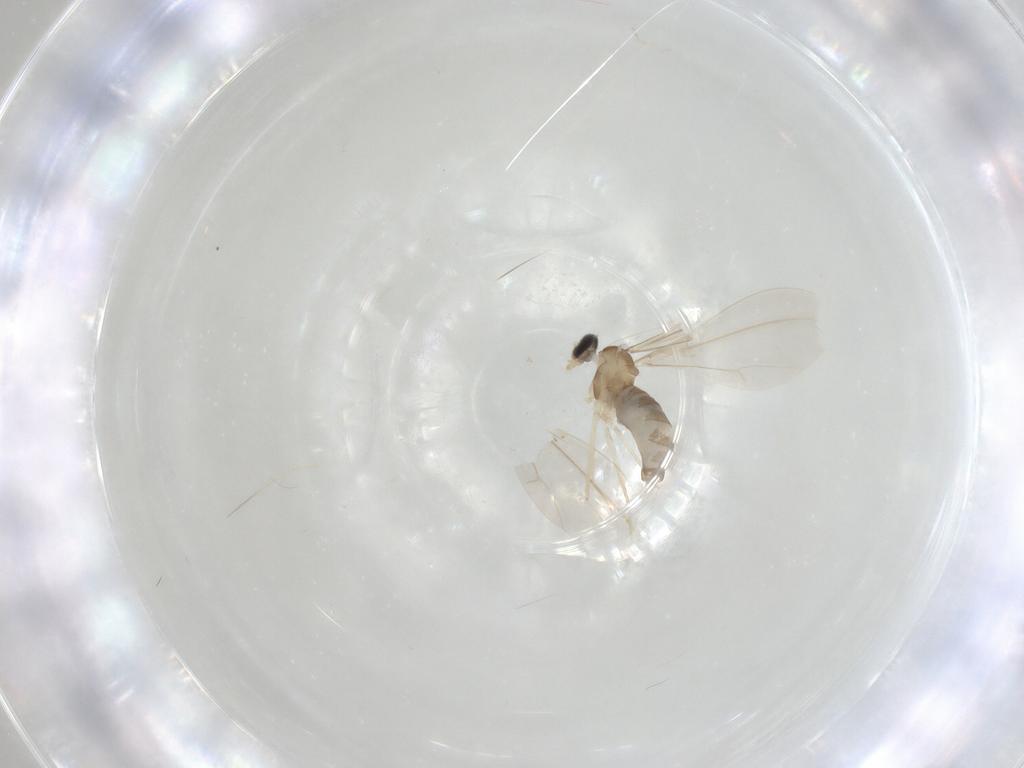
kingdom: Animalia
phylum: Arthropoda
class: Insecta
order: Diptera
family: Cecidomyiidae
